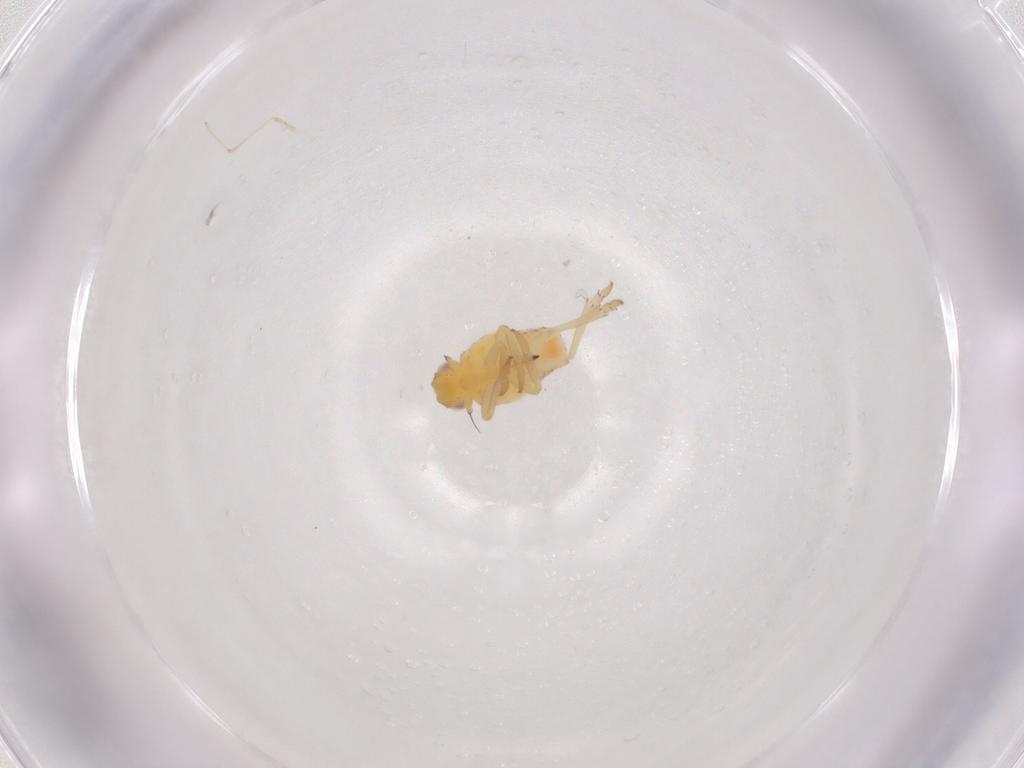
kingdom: Animalia
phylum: Arthropoda
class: Insecta
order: Hemiptera
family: Tropiduchidae
